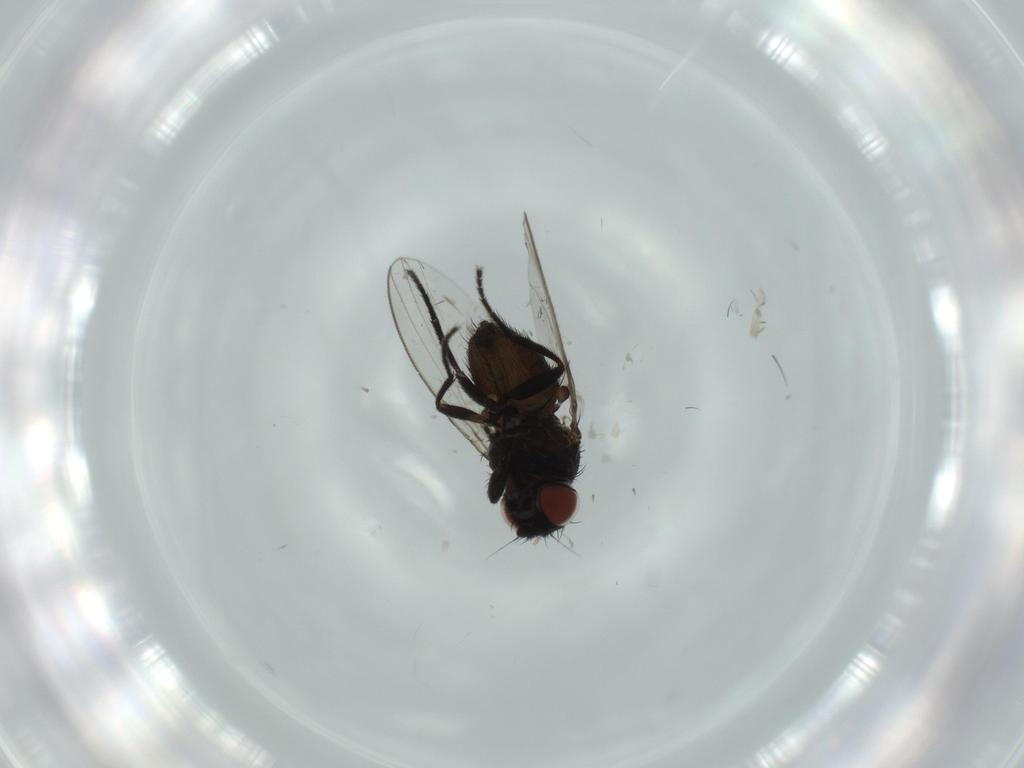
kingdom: Animalia
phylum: Arthropoda
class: Insecta
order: Diptera
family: Milichiidae
